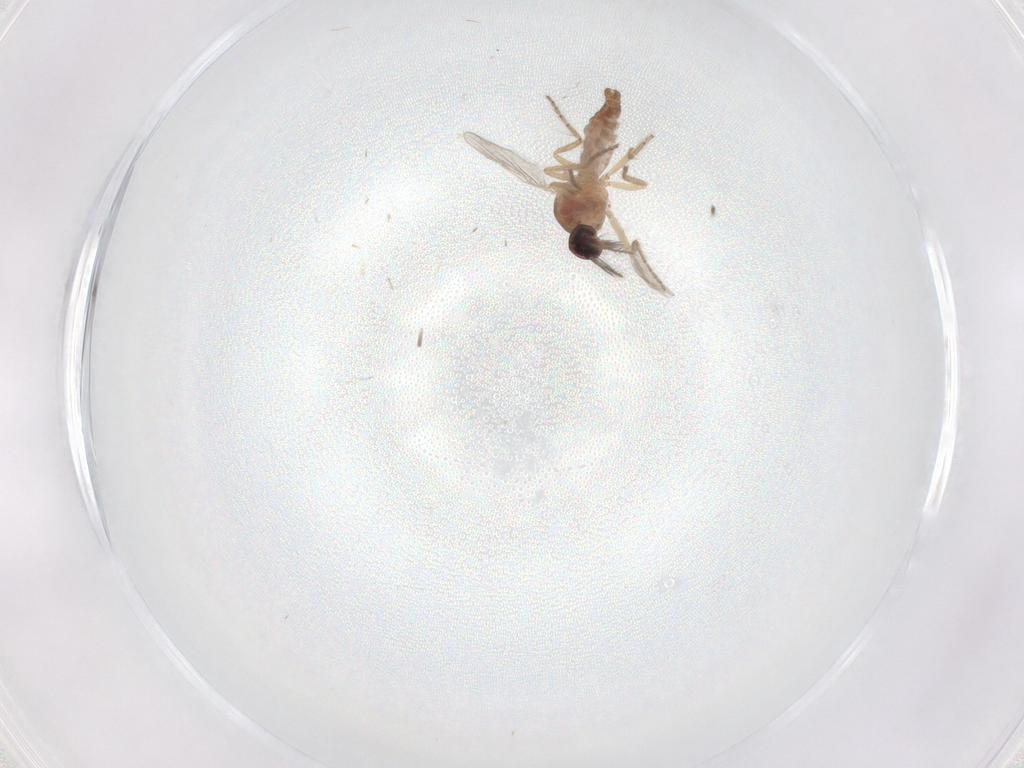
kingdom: Animalia
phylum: Arthropoda
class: Insecta
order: Diptera
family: Ceratopogonidae
